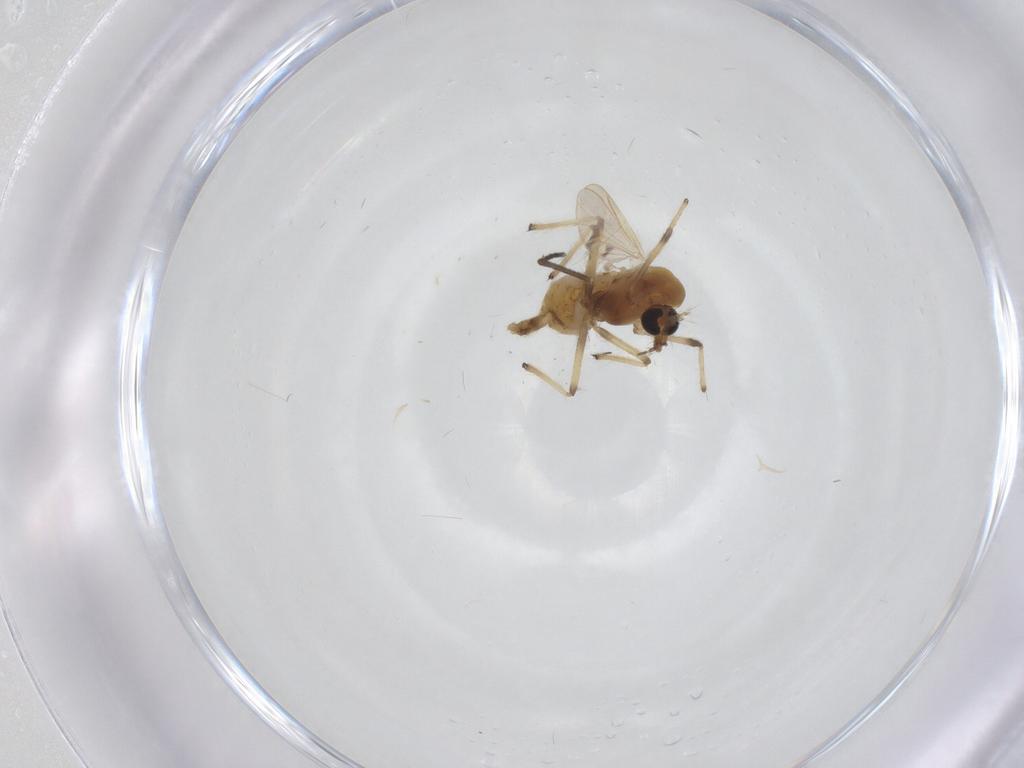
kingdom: Animalia
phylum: Arthropoda
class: Insecta
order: Diptera
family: Chironomidae
